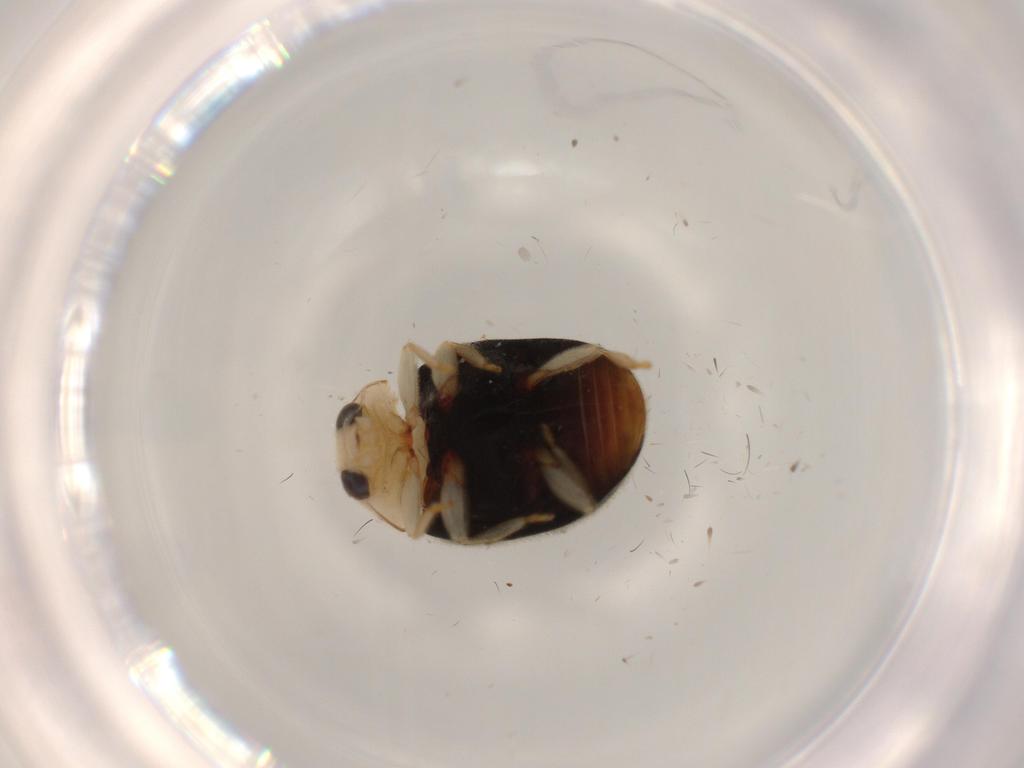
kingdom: Animalia
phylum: Arthropoda
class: Insecta
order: Coleoptera
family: Coccinellidae
